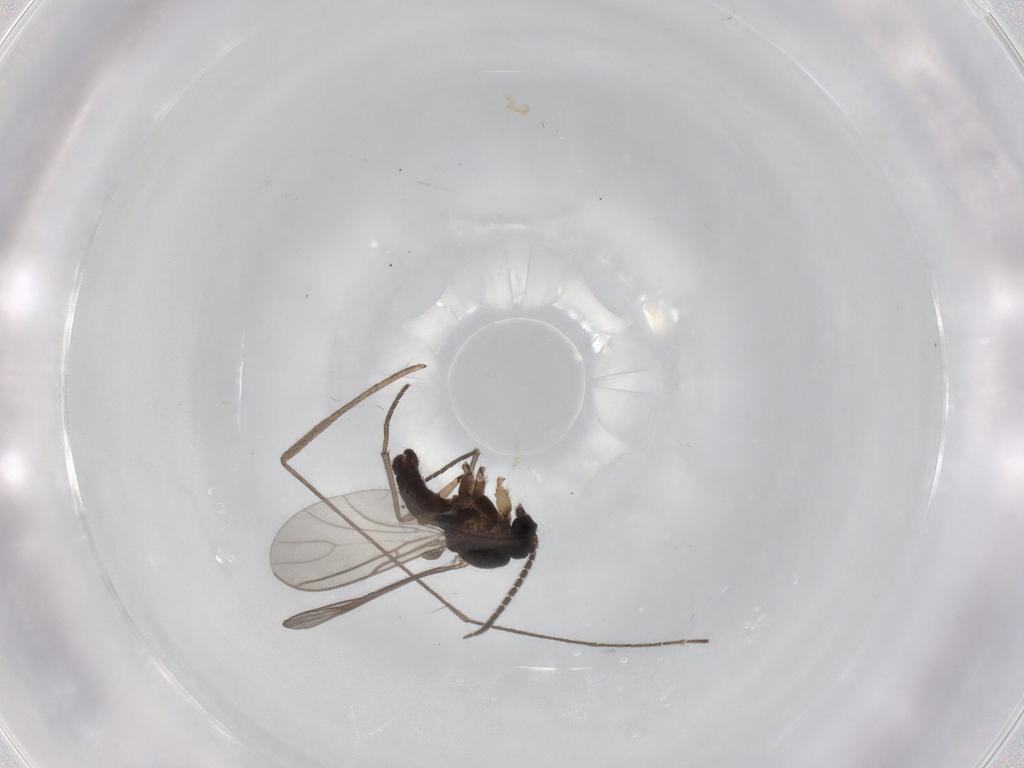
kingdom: Animalia
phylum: Arthropoda
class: Insecta
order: Diptera
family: Sciaridae
